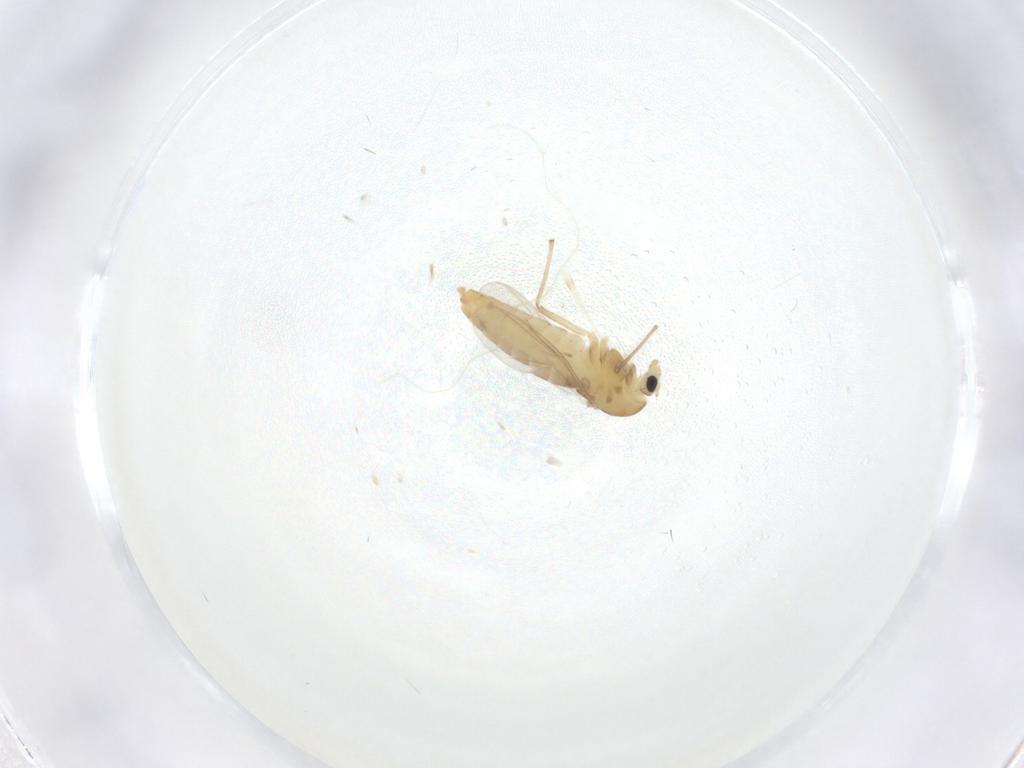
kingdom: Animalia
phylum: Arthropoda
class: Insecta
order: Diptera
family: Chironomidae
